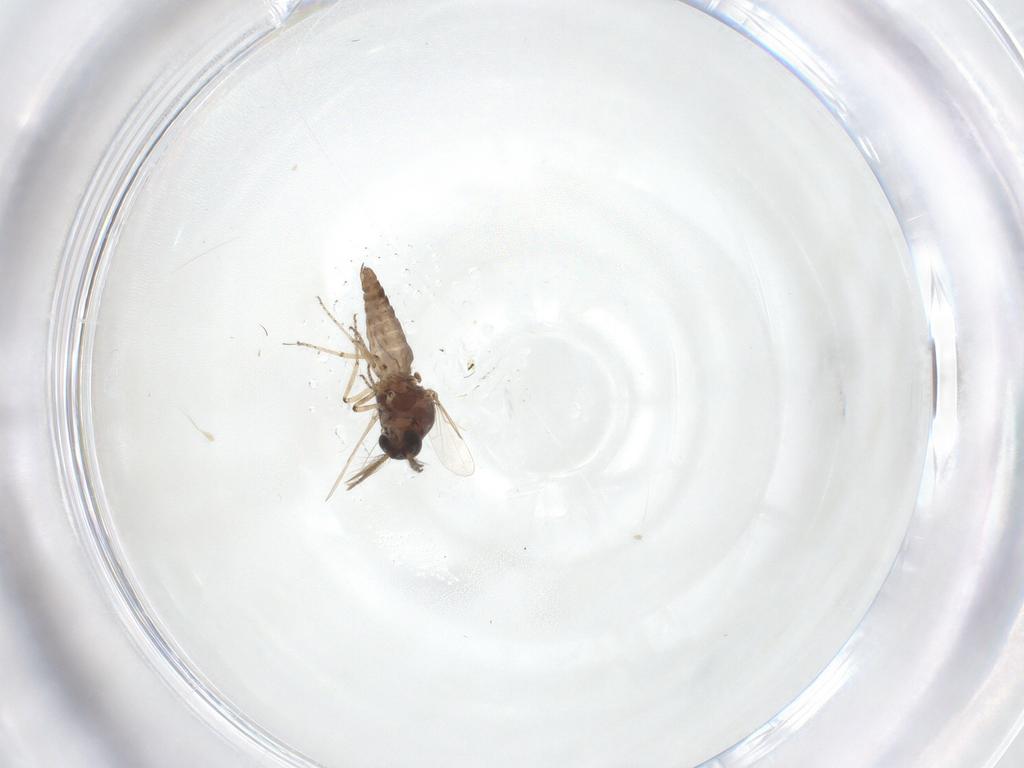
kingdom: Animalia
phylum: Arthropoda
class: Insecta
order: Diptera
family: Ceratopogonidae
